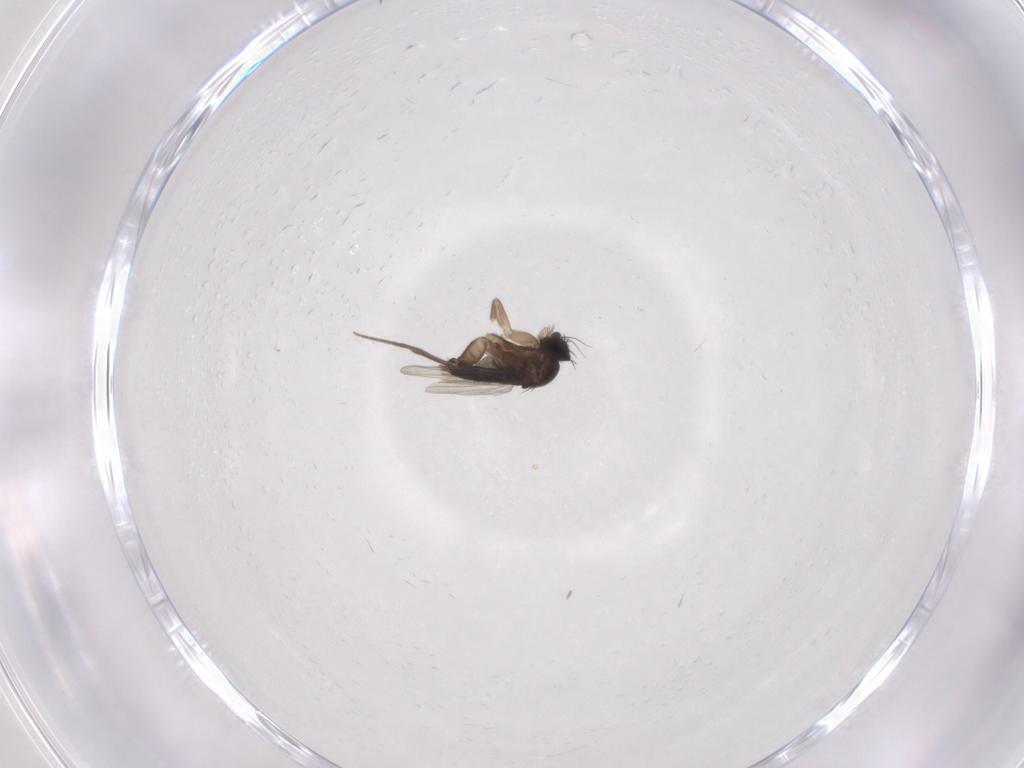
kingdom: Animalia
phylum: Arthropoda
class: Insecta
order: Diptera
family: Phoridae
